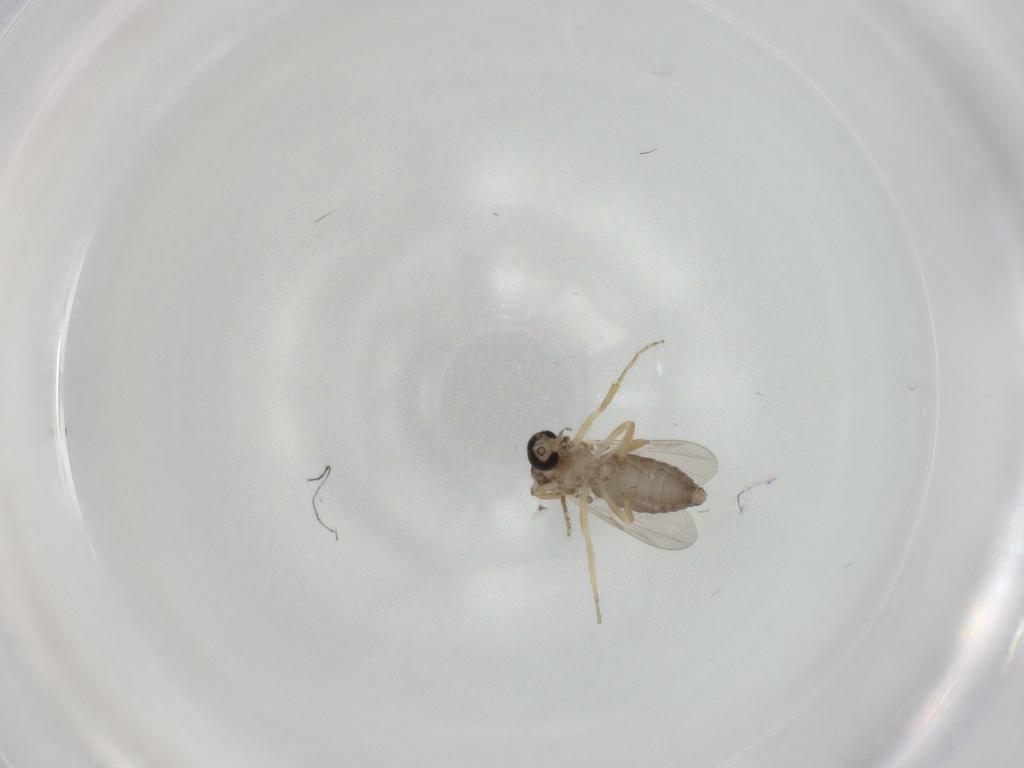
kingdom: Animalia
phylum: Arthropoda
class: Insecta
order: Diptera
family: Ceratopogonidae
